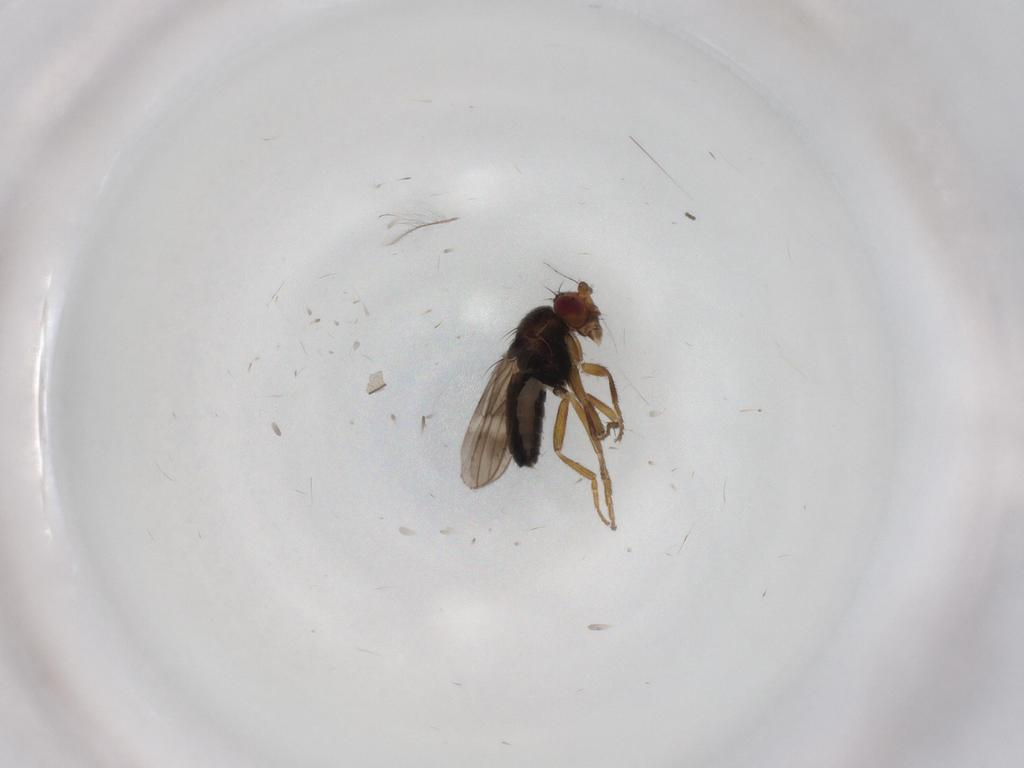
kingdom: Animalia
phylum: Arthropoda
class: Insecta
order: Diptera
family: Sphaeroceridae
